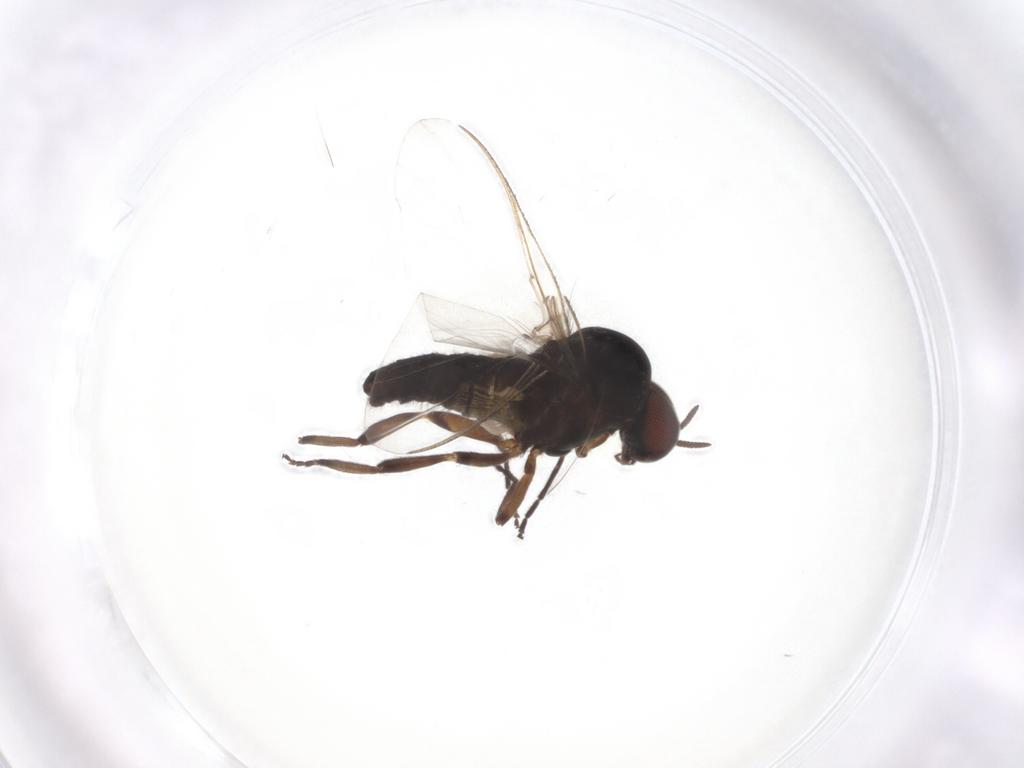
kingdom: Animalia
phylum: Arthropoda
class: Insecta
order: Diptera
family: Simuliidae
